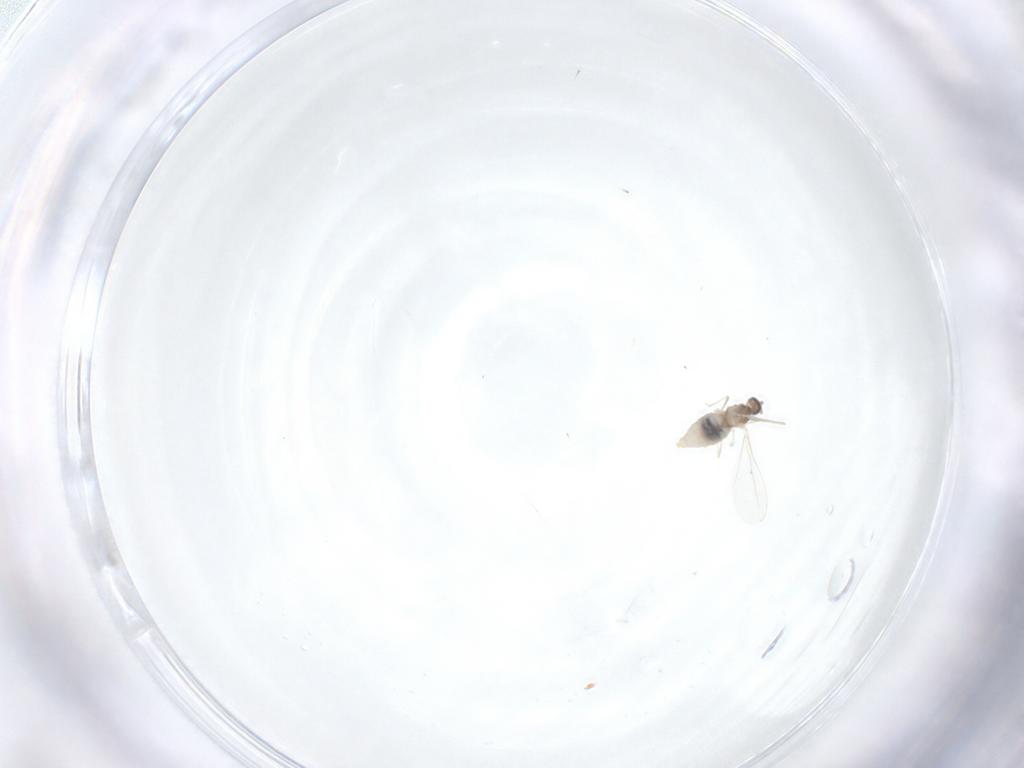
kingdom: Animalia
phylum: Arthropoda
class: Insecta
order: Diptera
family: Cecidomyiidae
